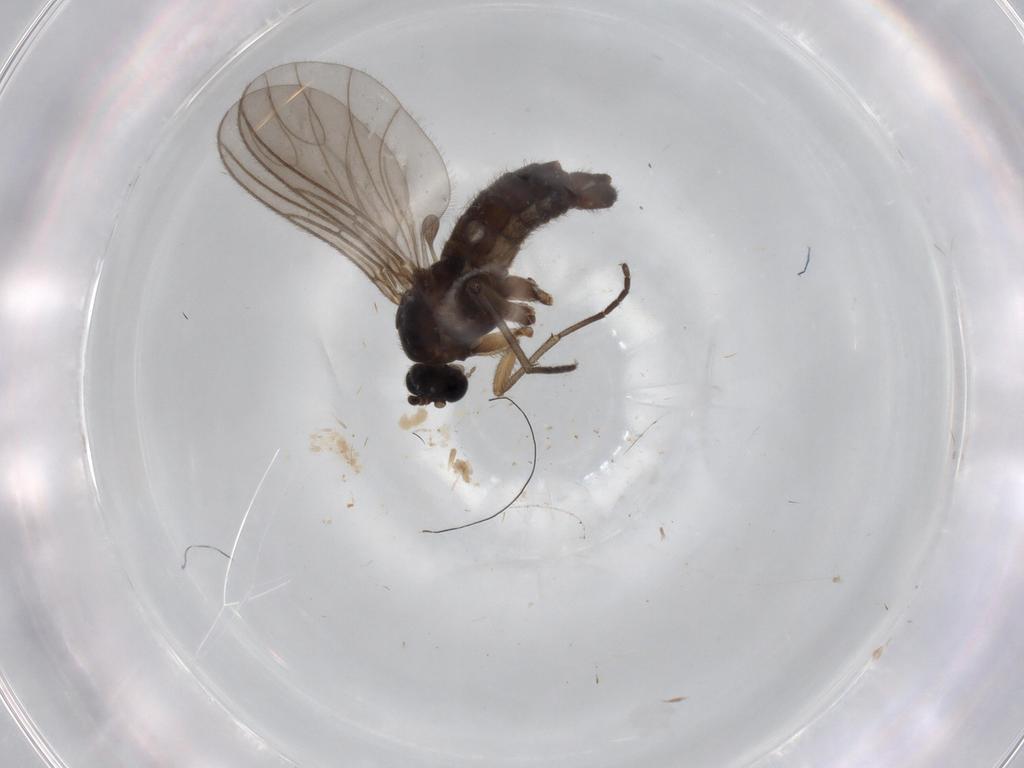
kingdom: Animalia
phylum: Arthropoda
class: Insecta
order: Diptera
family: Sciaridae
